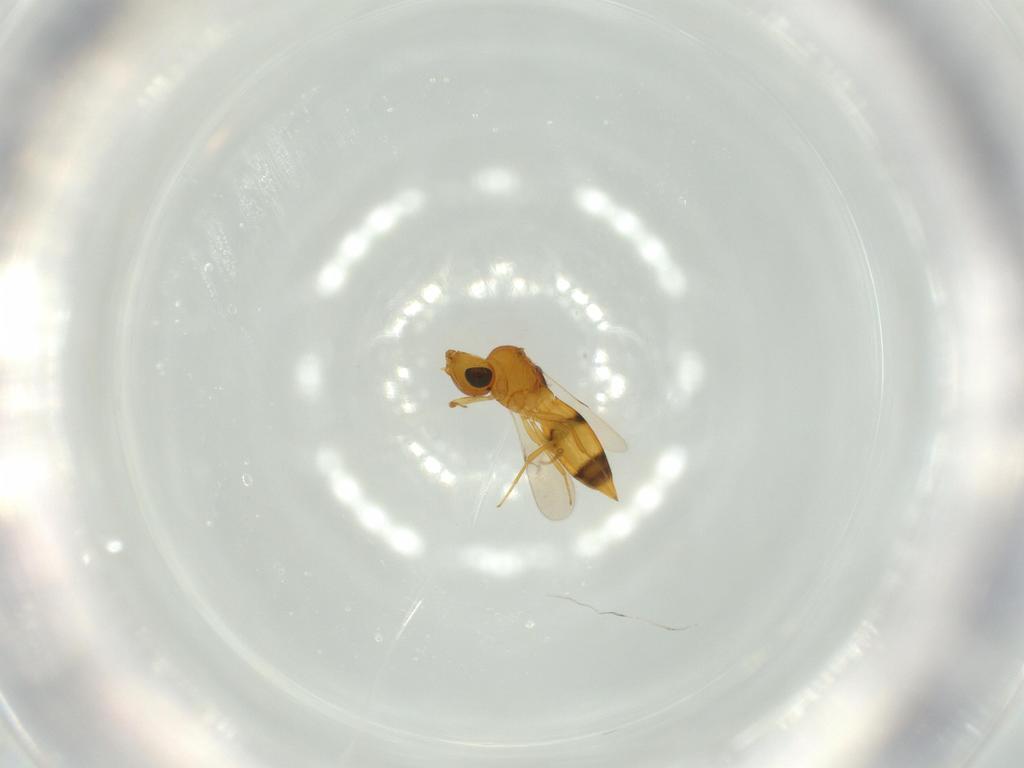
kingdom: Animalia
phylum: Arthropoda
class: Insecta
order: Hymenoptera
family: Scelionidae
